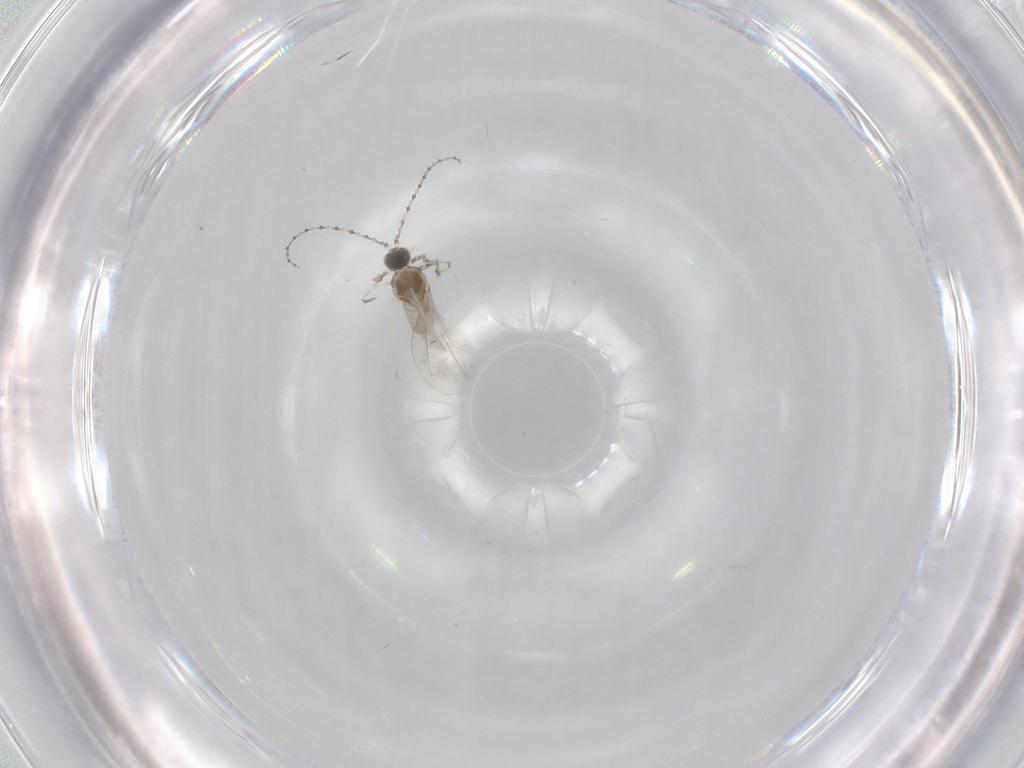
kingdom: Animalia
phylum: Arthropoda
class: Insecta
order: Diptera
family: Cecidomyiidae
